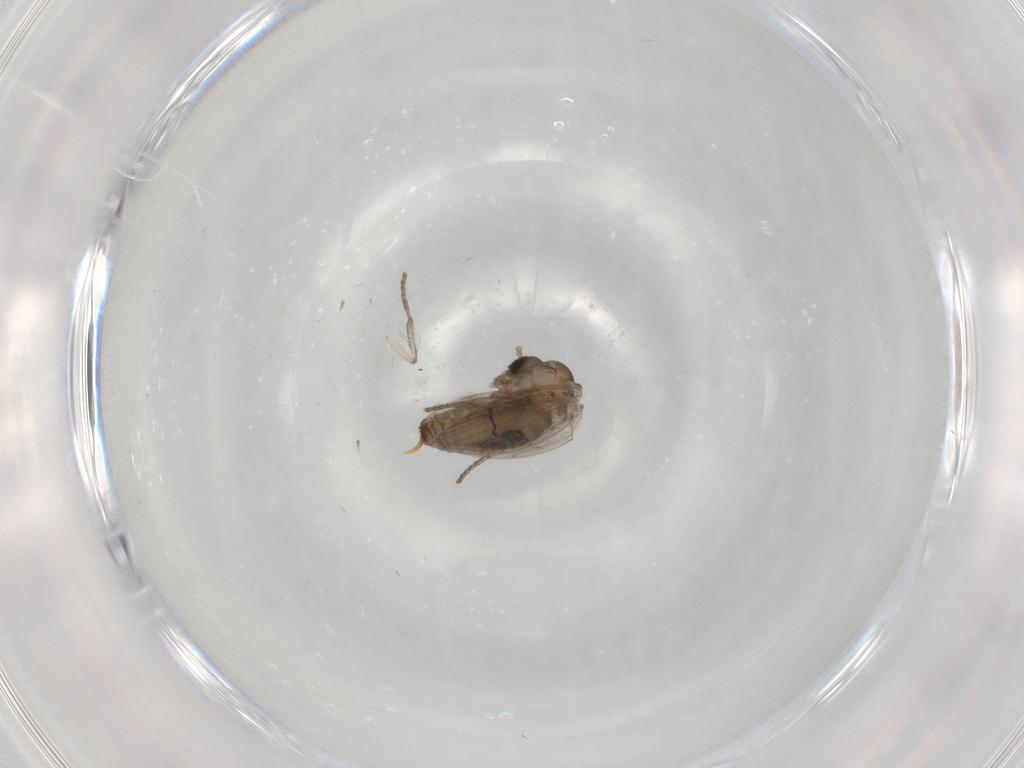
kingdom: Animalia
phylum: Arthropoda
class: Insecta
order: Diptera
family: Psychodidae
